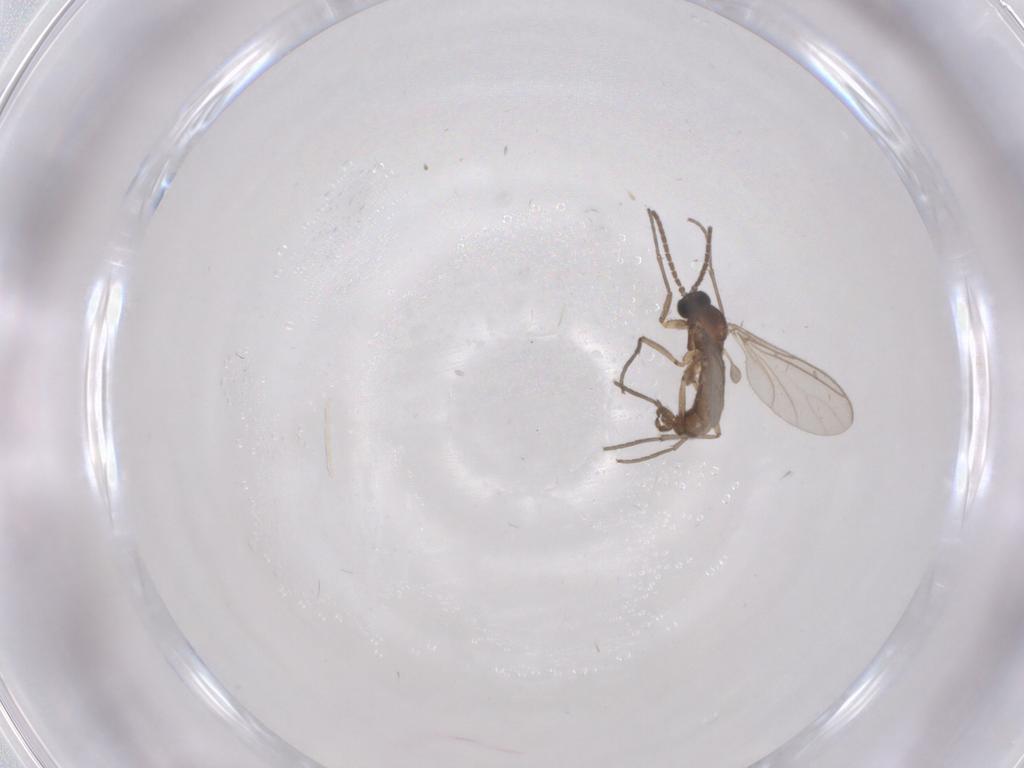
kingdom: Animalia
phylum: Arthropoda
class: Insecta
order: Diptera
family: Sciaridae
